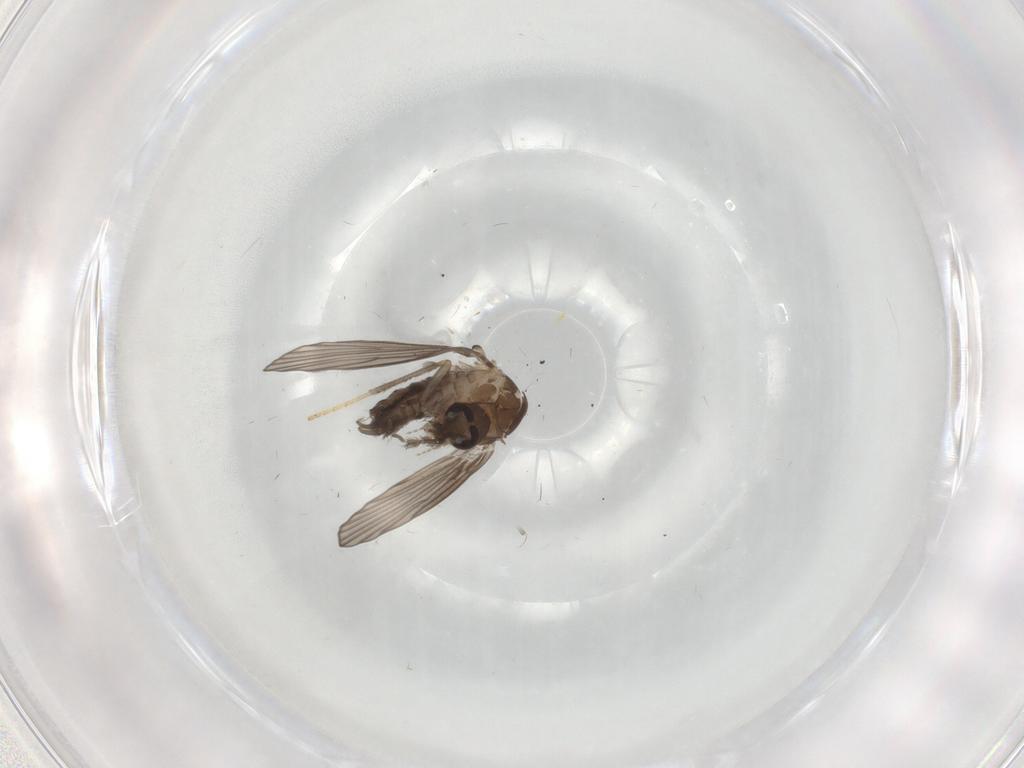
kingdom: Animalia
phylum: Arthropoda
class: Insecta
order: Diptera
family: Psychodidae
